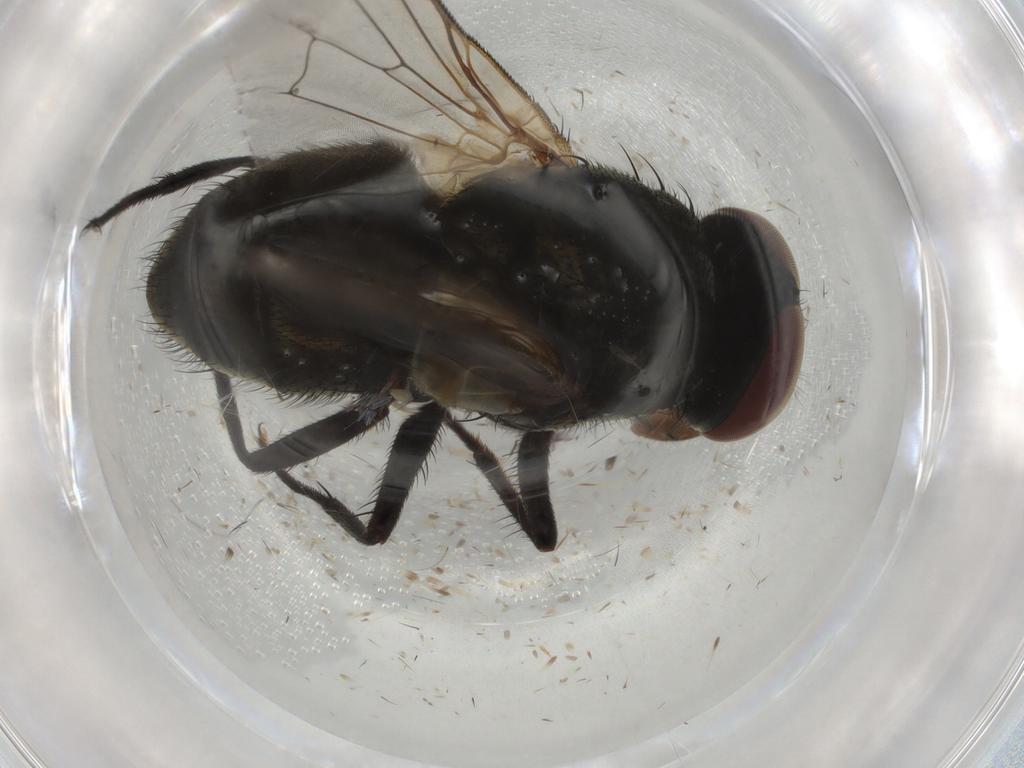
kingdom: Animalia
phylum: Arthropoda
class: Insecta
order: Diptera
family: Muscidae
